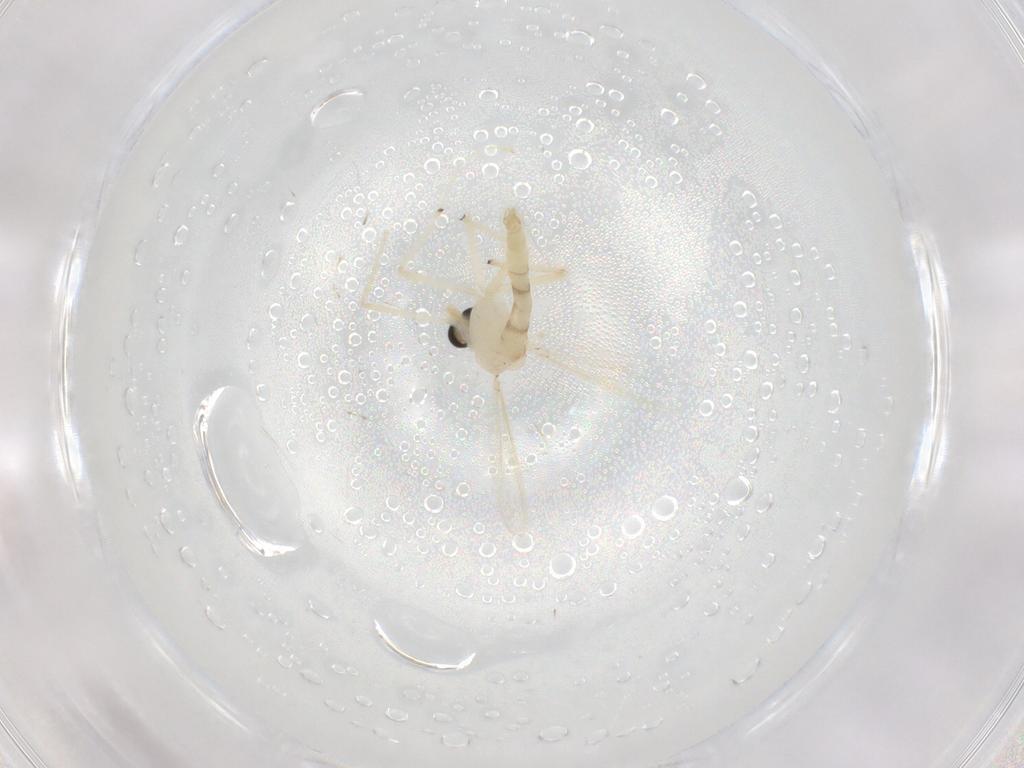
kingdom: Animalia
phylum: Arthropoda
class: Insecta
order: Diptera
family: Chironomidae
